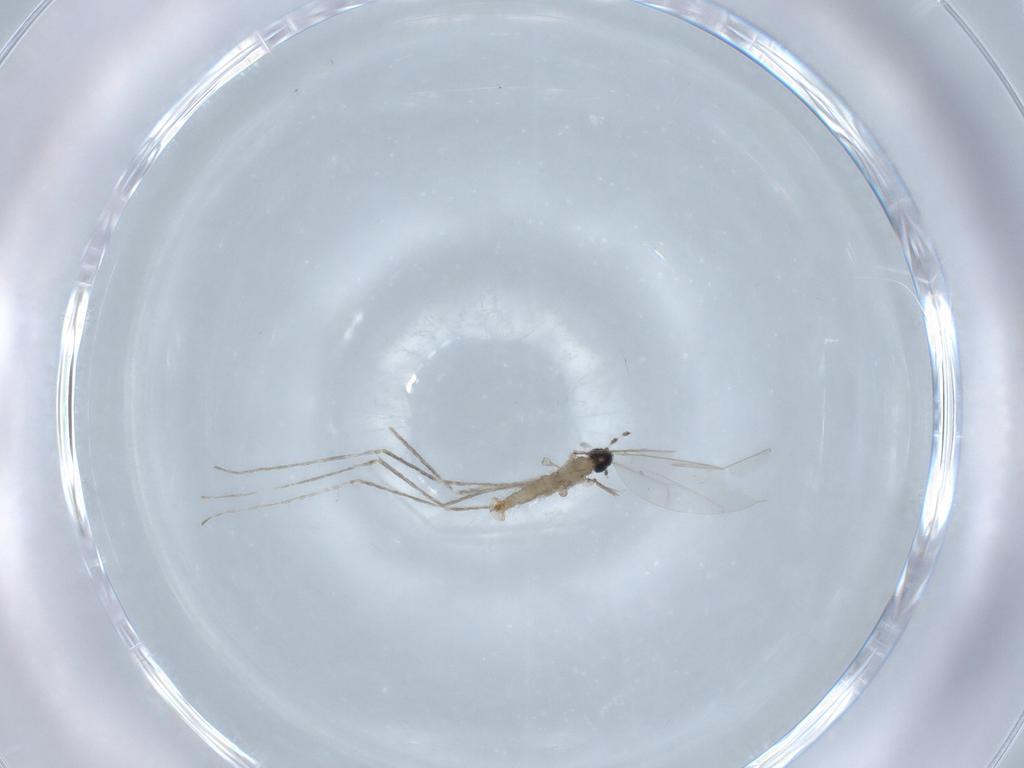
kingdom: Animalia
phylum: Arthropoda
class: Insecta
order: Diptera
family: Cecidomyiidae
